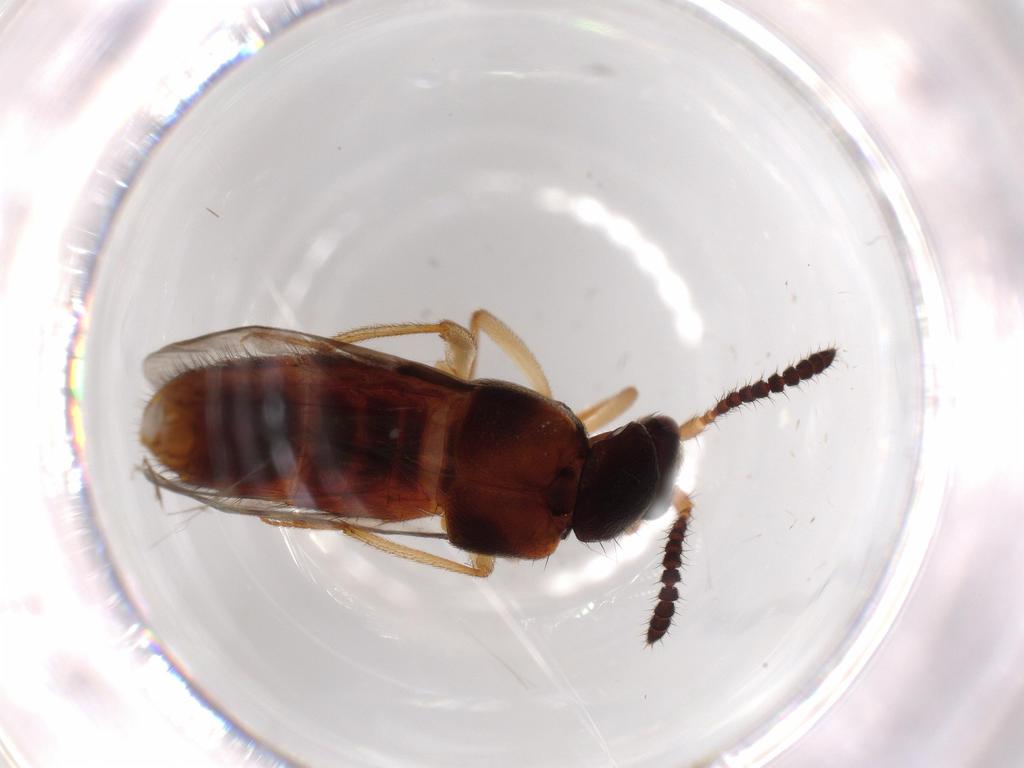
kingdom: Animalia
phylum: Arthropoda
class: Insecta
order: Coleoptera
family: Staphylinidae
